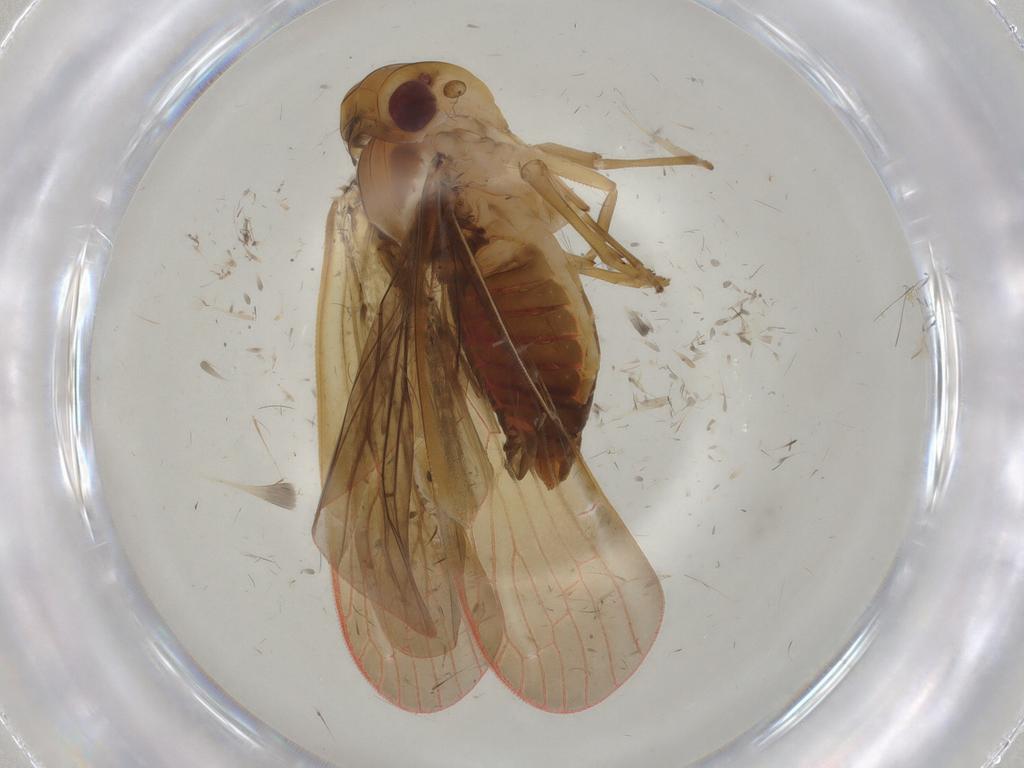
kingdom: Animalia
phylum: Arthropoda
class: Insecta
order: Hemiptera
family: Achilidae
